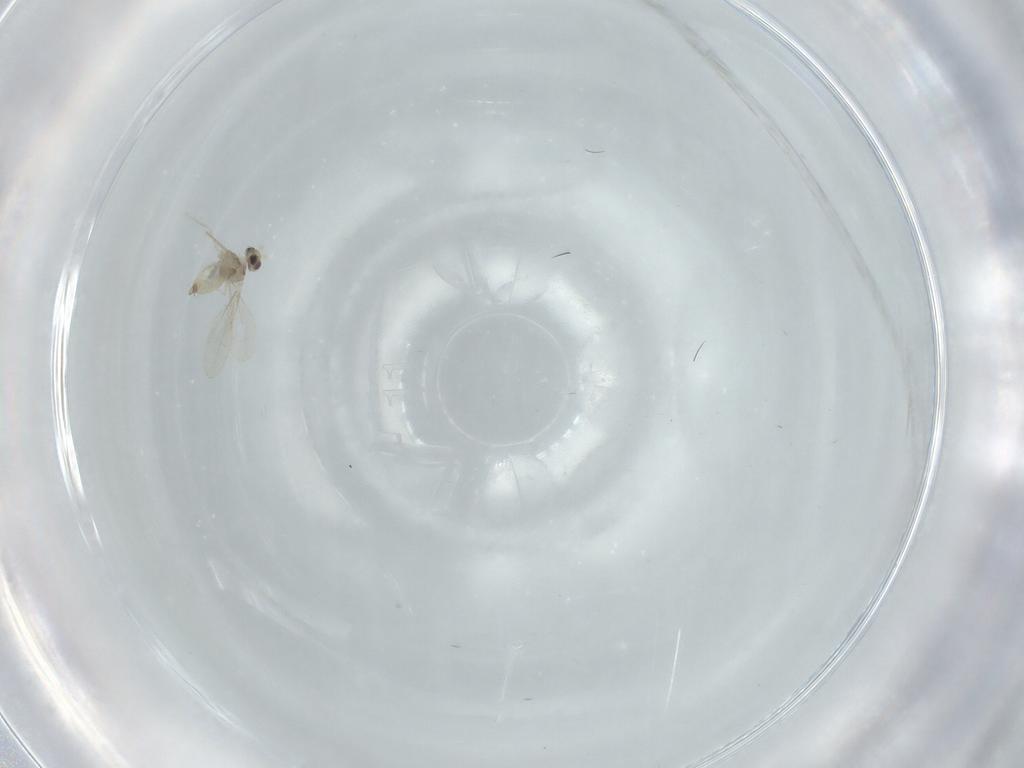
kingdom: Animalia
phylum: Arthropoda
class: Insecta
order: Diptera
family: Cecidomyiidae
